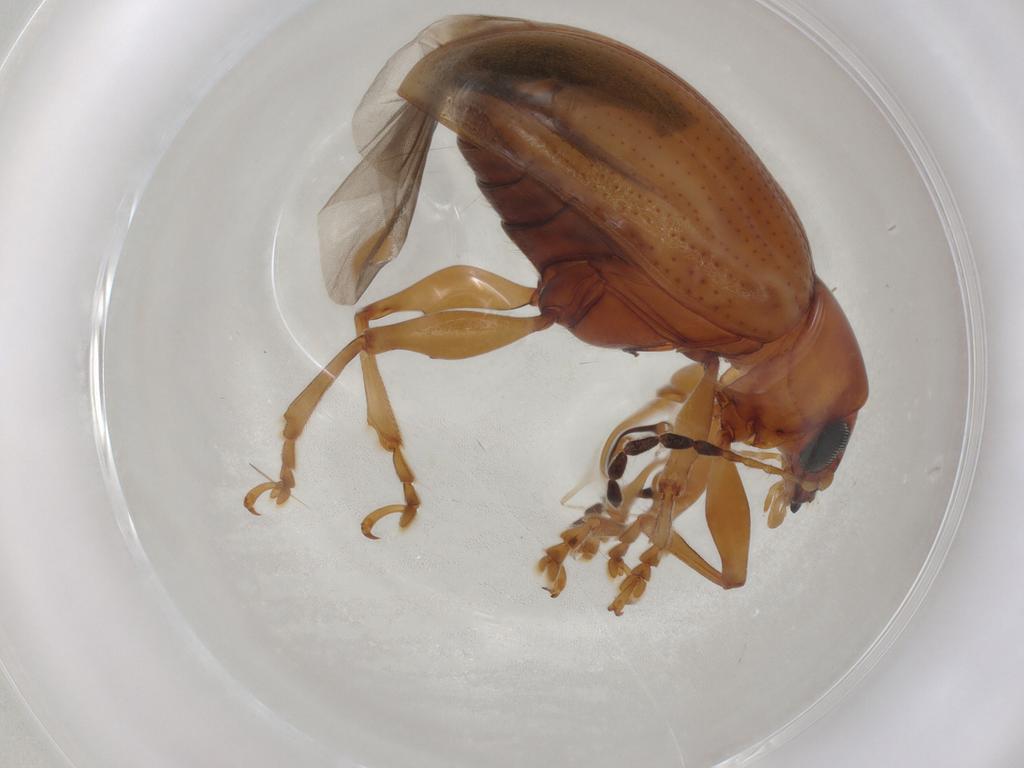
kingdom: Animalia
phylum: Arthropoda
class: Insecta
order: Coleoptera
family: Chrysomelidae
